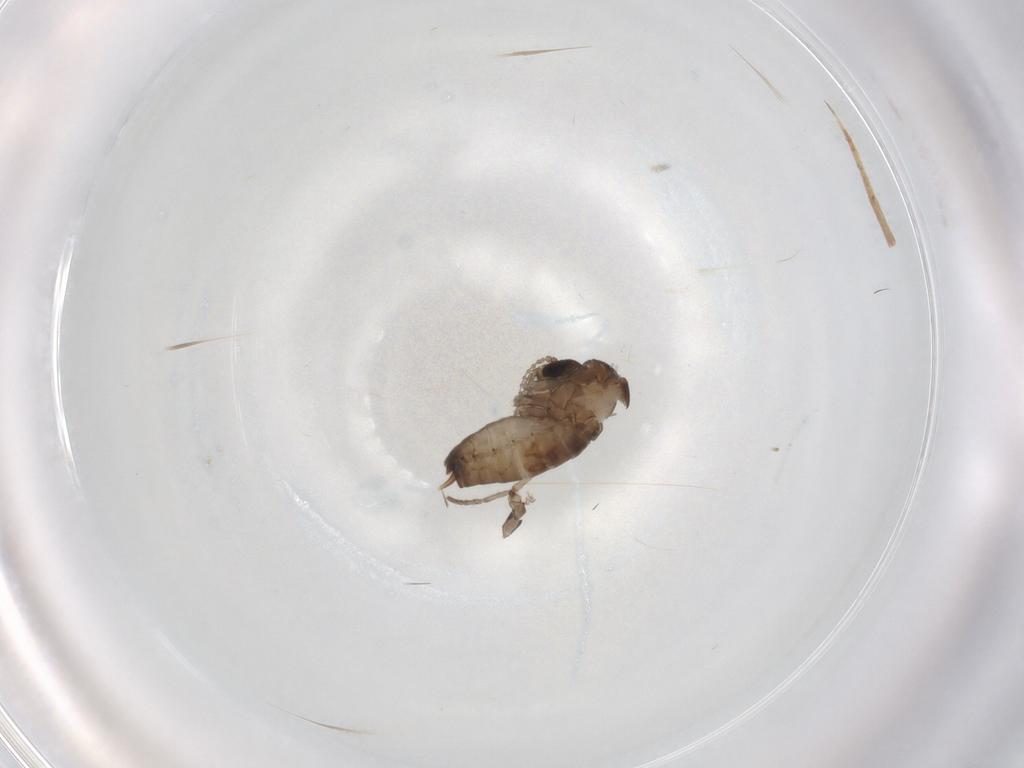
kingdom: Animalia
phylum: Arthropoda
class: Insecta
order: Diptera
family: Psychodidae
